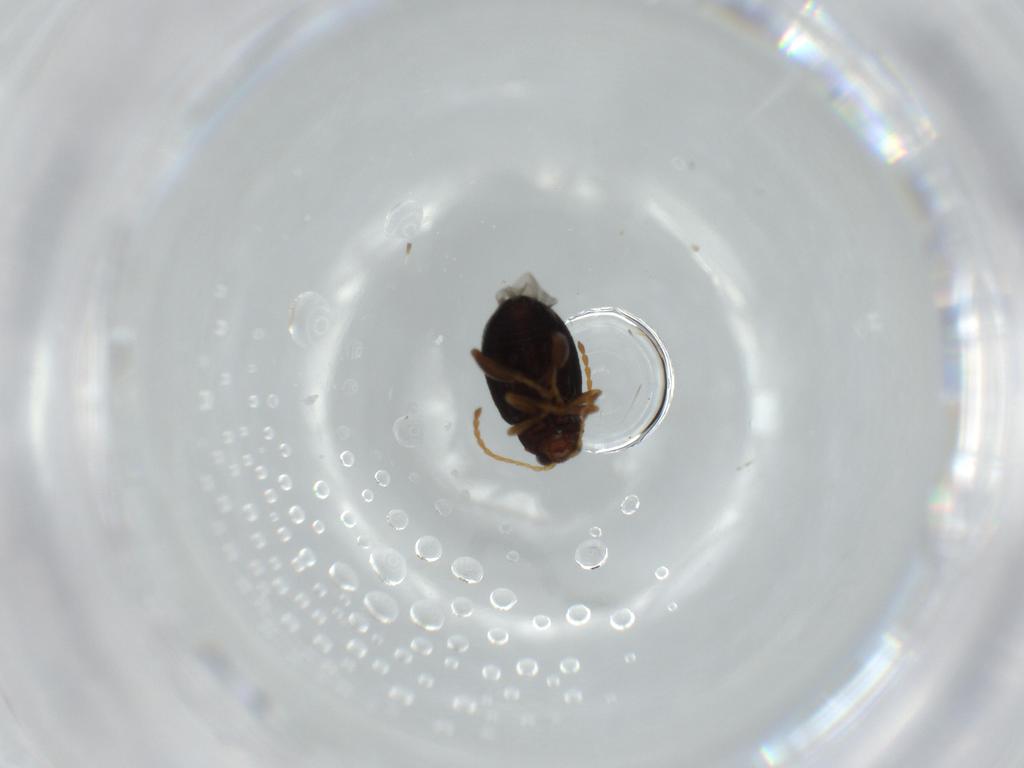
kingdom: Animalia
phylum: Arthropoda
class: Insecta
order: Coleoptera
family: Chrysomelidae
